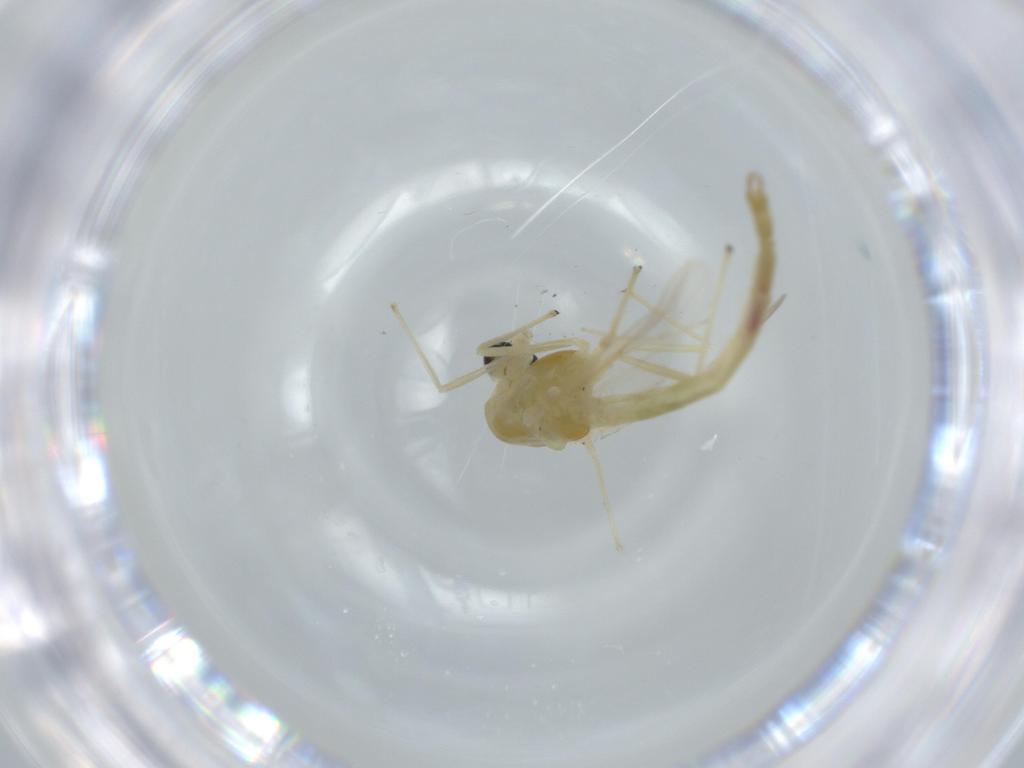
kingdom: Animalia
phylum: Arthropoda
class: Insecta
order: Diptera
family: Chironomidae
